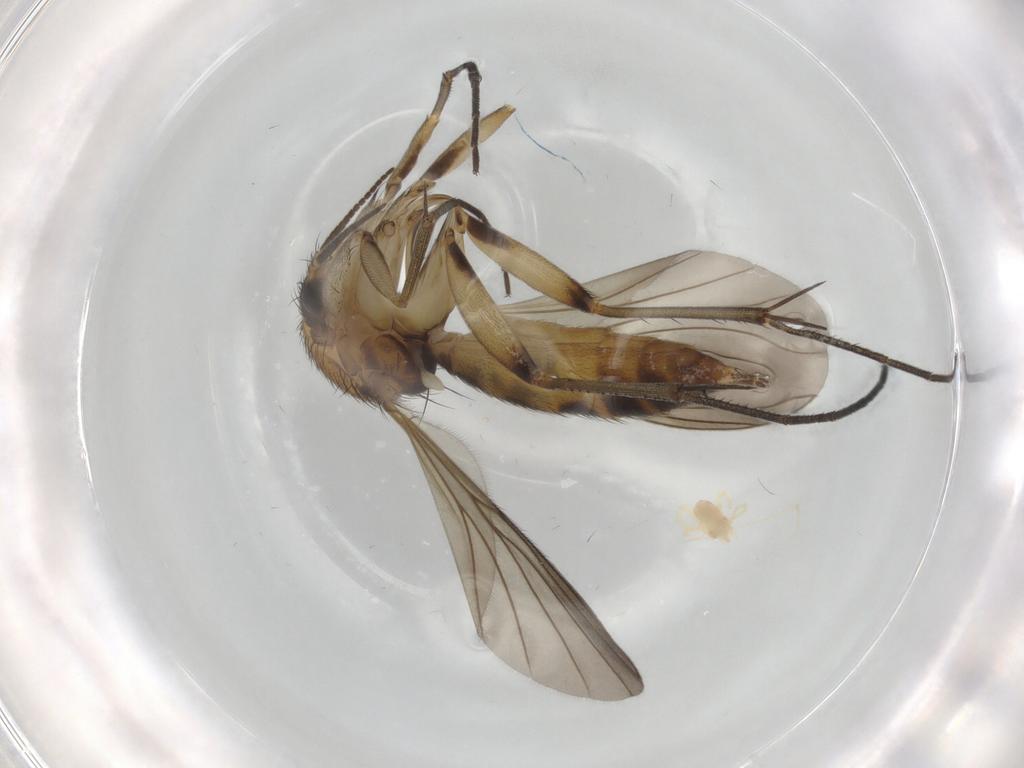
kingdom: Animalia
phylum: Arthropoda
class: Insecta
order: Diptera
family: Mycetophilidae
